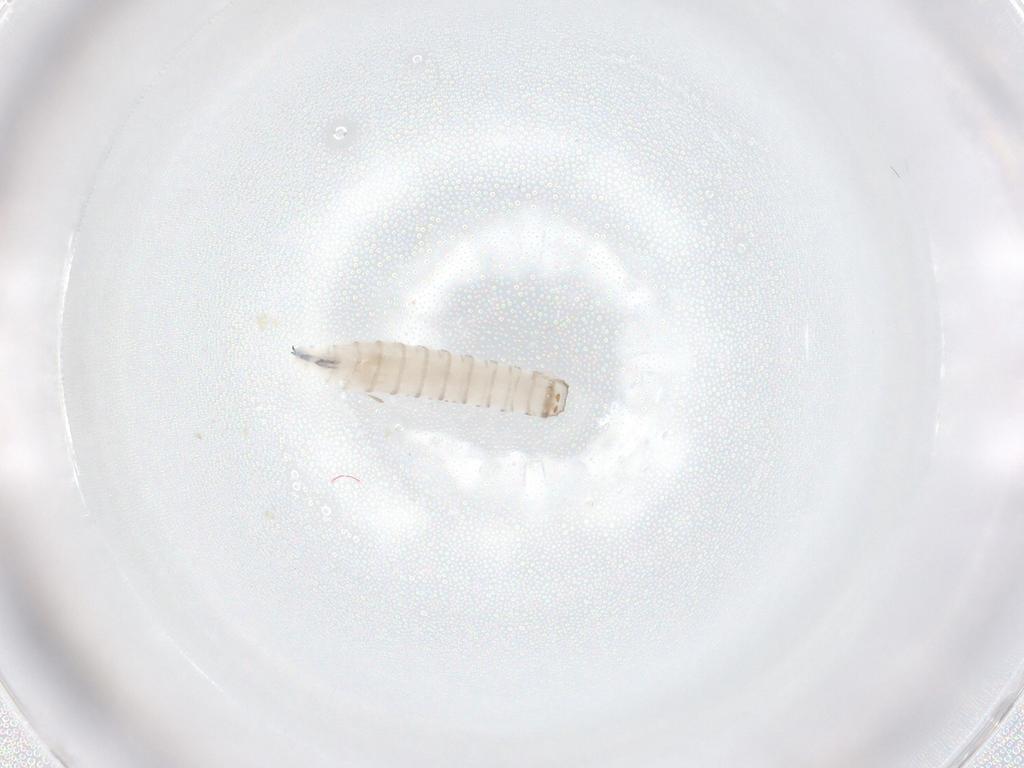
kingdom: Animalia
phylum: Arthropoda
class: Insecta
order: Diptera
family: Sarcophagidae
